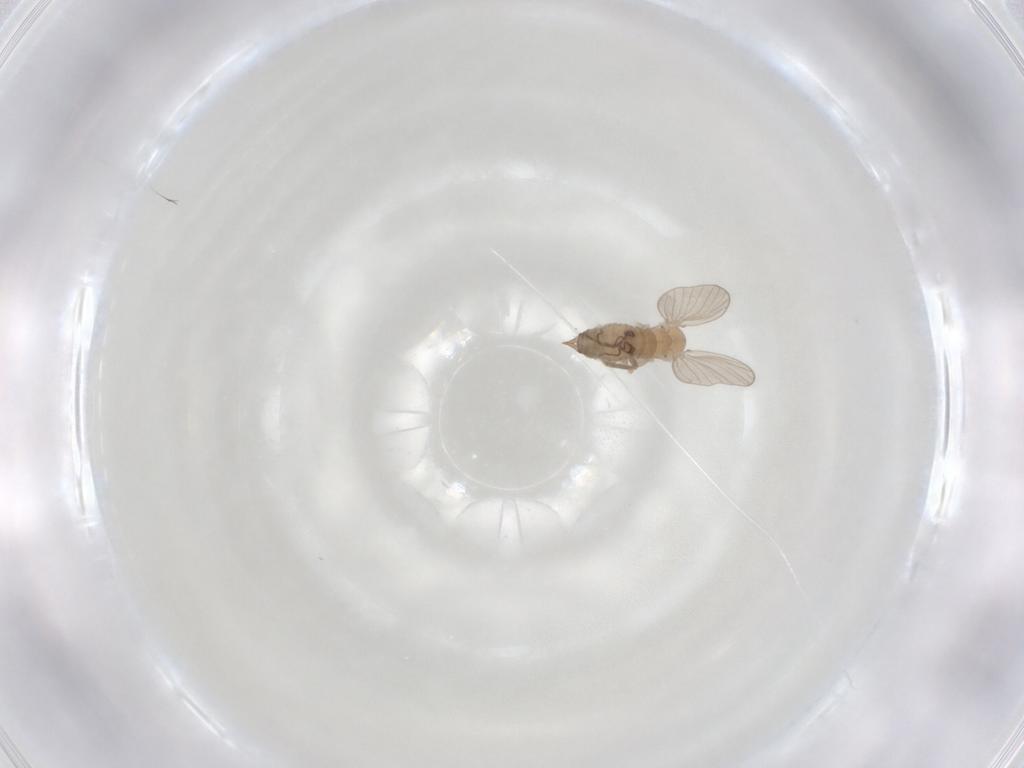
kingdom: Animalia
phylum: Arthropoda
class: Insecta
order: Diptera
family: Psychodidae
